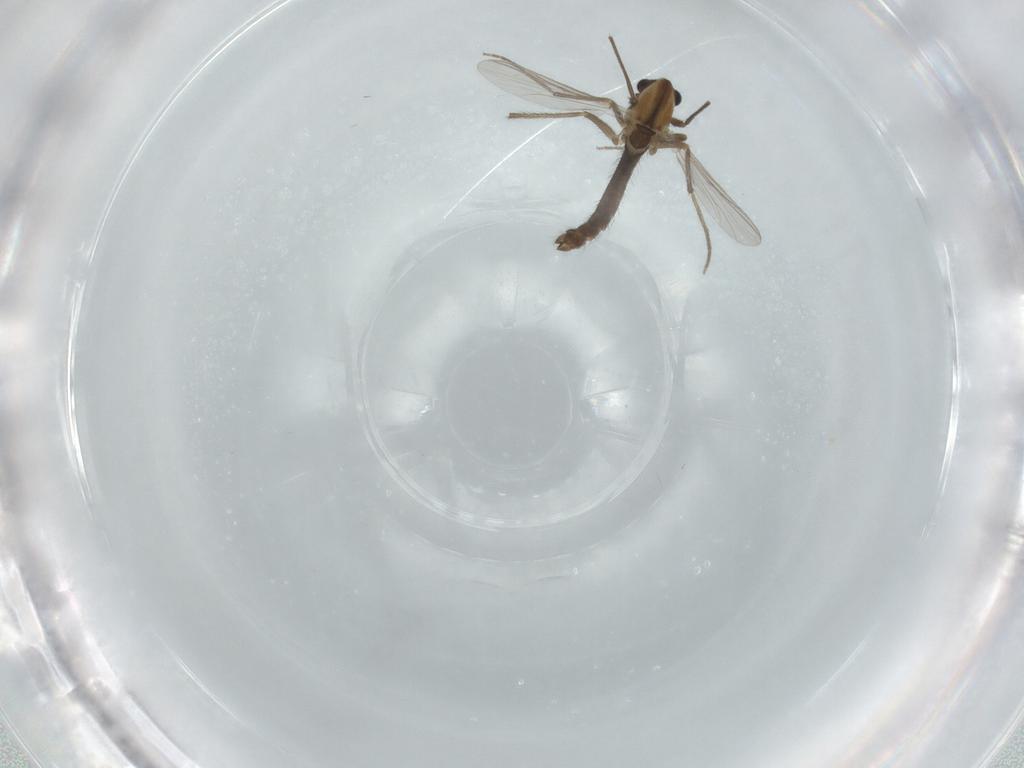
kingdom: Animalia
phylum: Arthropoda
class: Insecta
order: Diptera
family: Chironomidae
